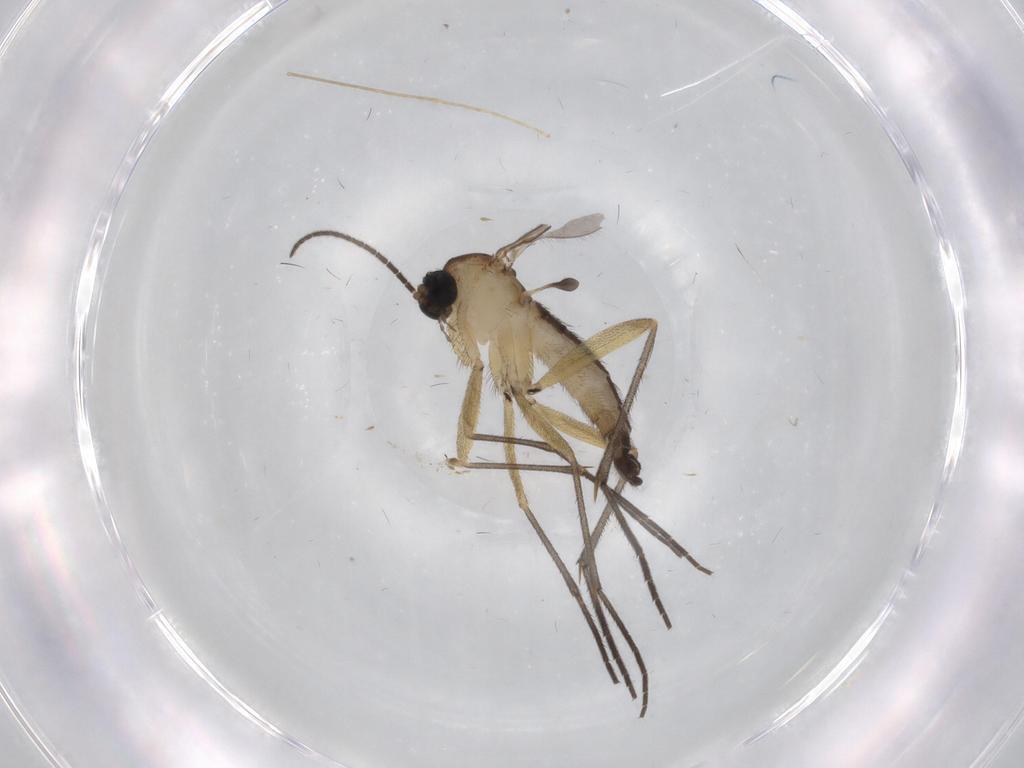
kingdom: Animalia
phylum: Arthropoda
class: Insecta
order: Diptera
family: Sciaridae
